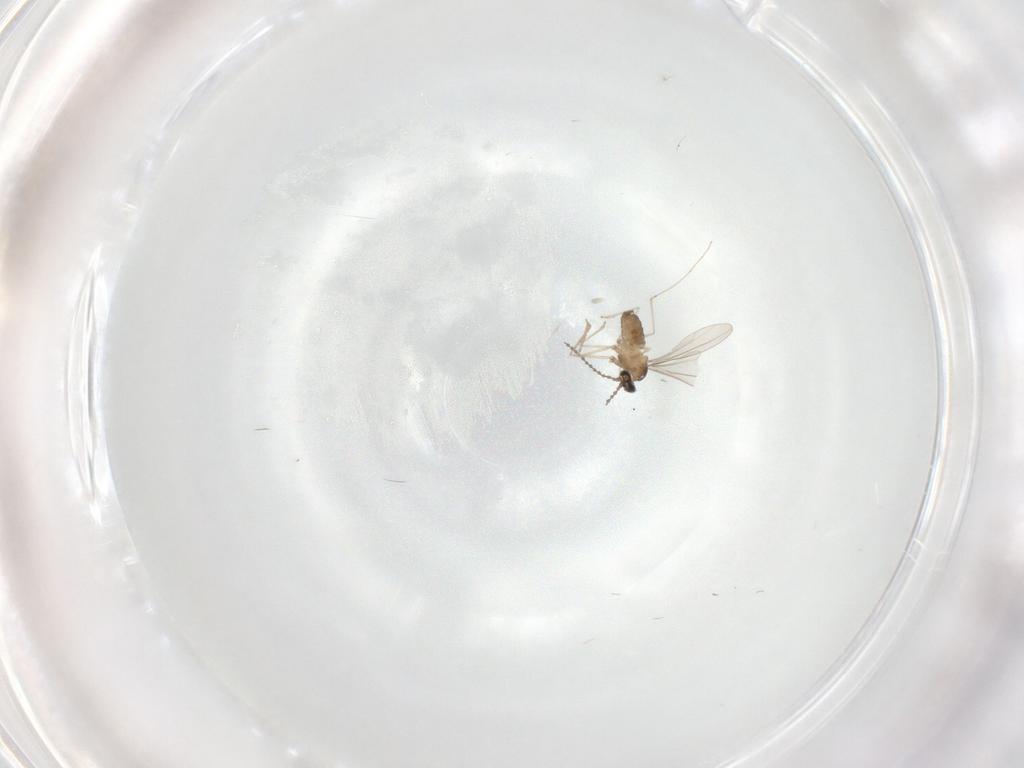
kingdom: Animalia
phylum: Arthropoda
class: Insecta
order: Diptera
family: Cecidomyiidae
